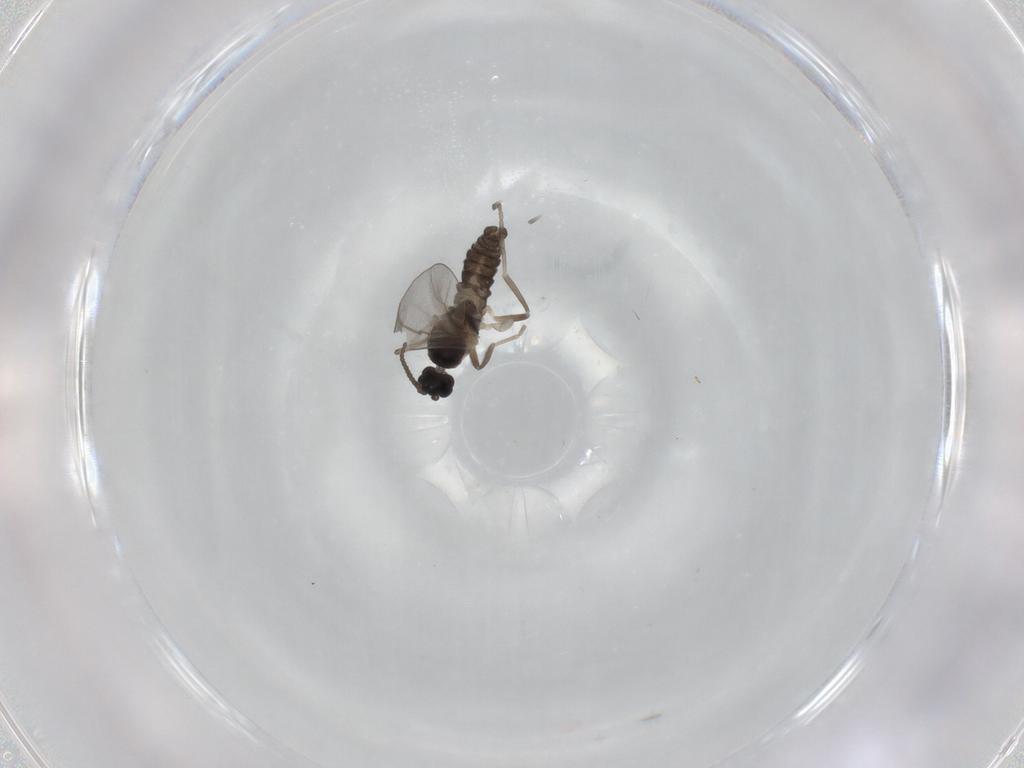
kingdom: Animalia
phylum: Arthropoda
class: Insecta
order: Diptera
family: Cecidomyiidae
